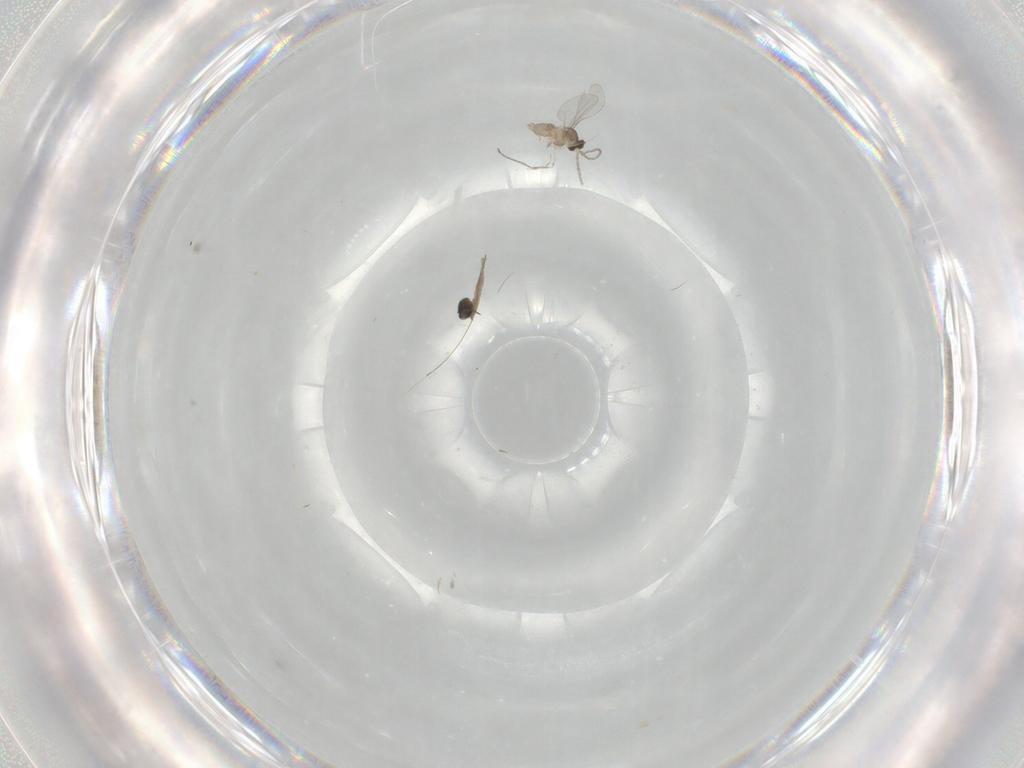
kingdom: Animalia
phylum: Arthropoda
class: Insecta
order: Diptera
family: Cecidomyiidae
